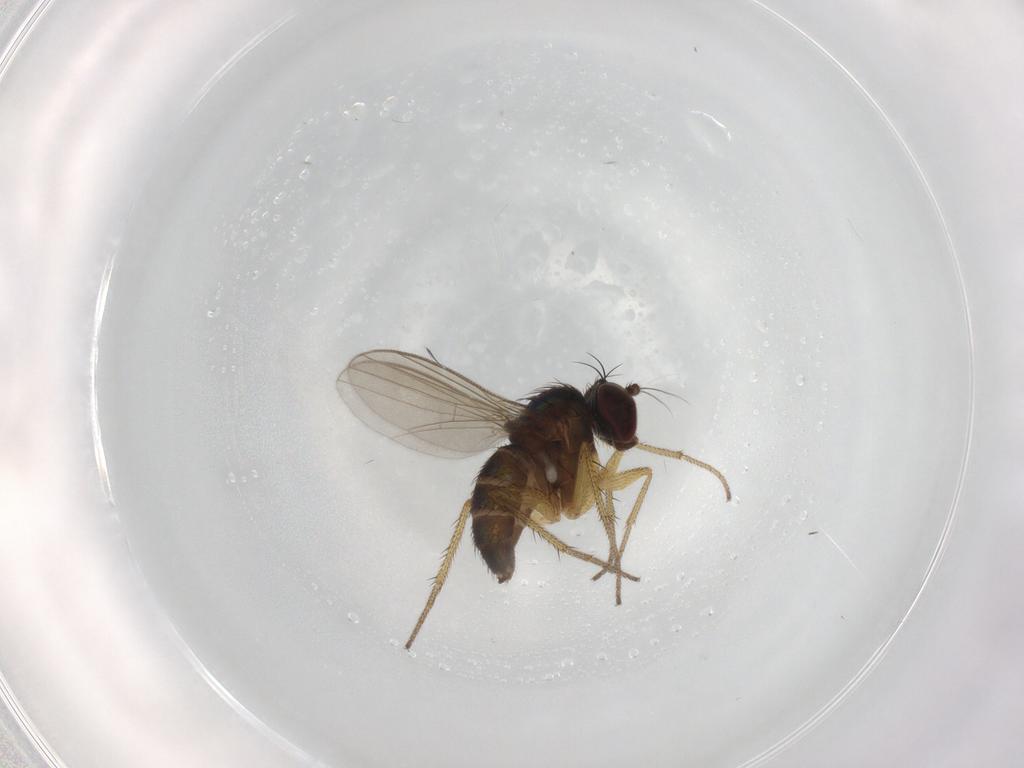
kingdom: Animalia
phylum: Arthropoda
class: Insecta
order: Diptera
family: Dolichopodidae
